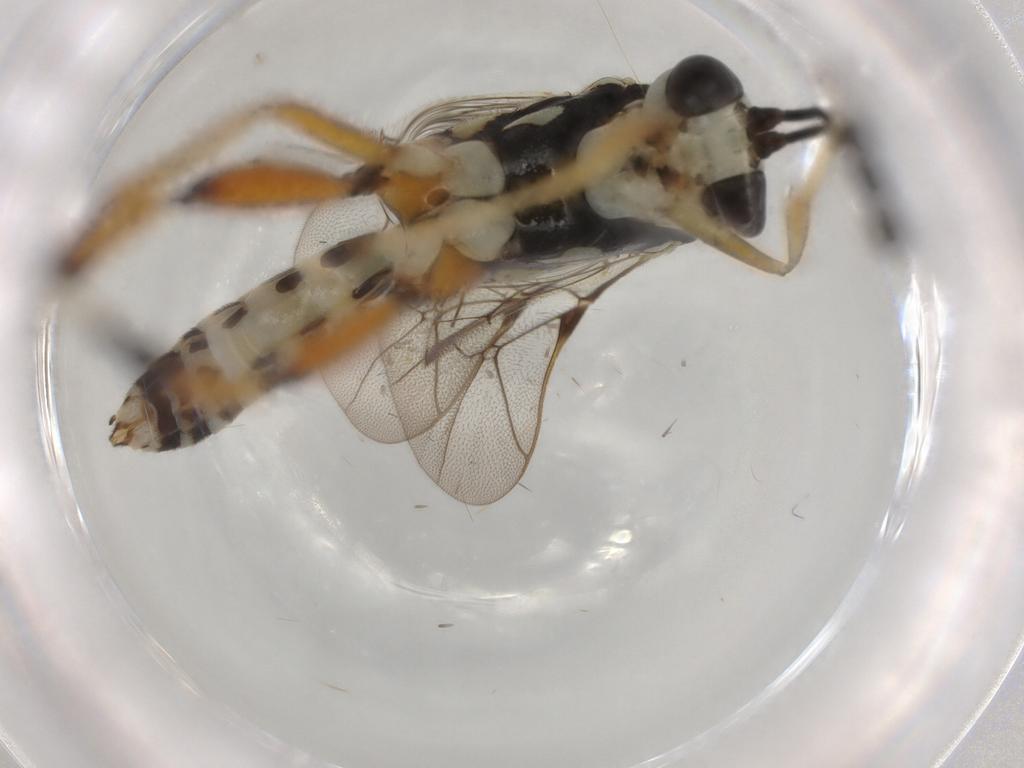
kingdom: Animalia
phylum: Arthropoda
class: Insecta
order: Hymenoptera
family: Ichneumonidae
